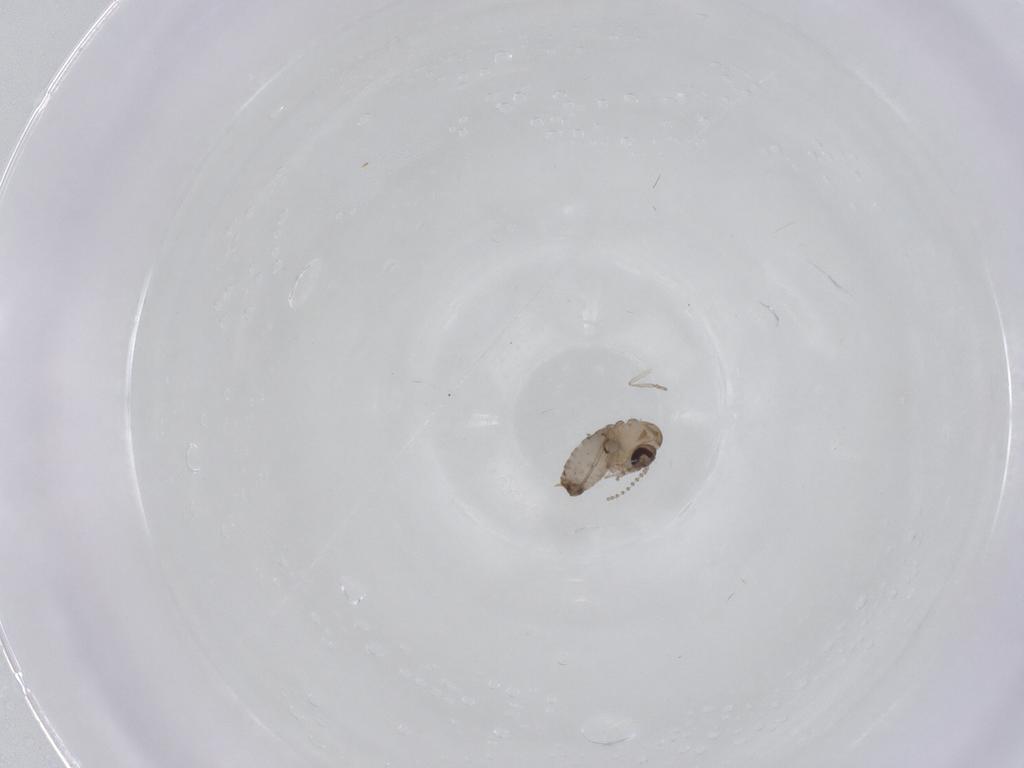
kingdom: Animalia
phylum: Arthropoda
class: Insecta
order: Diptera
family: Psychodidae
